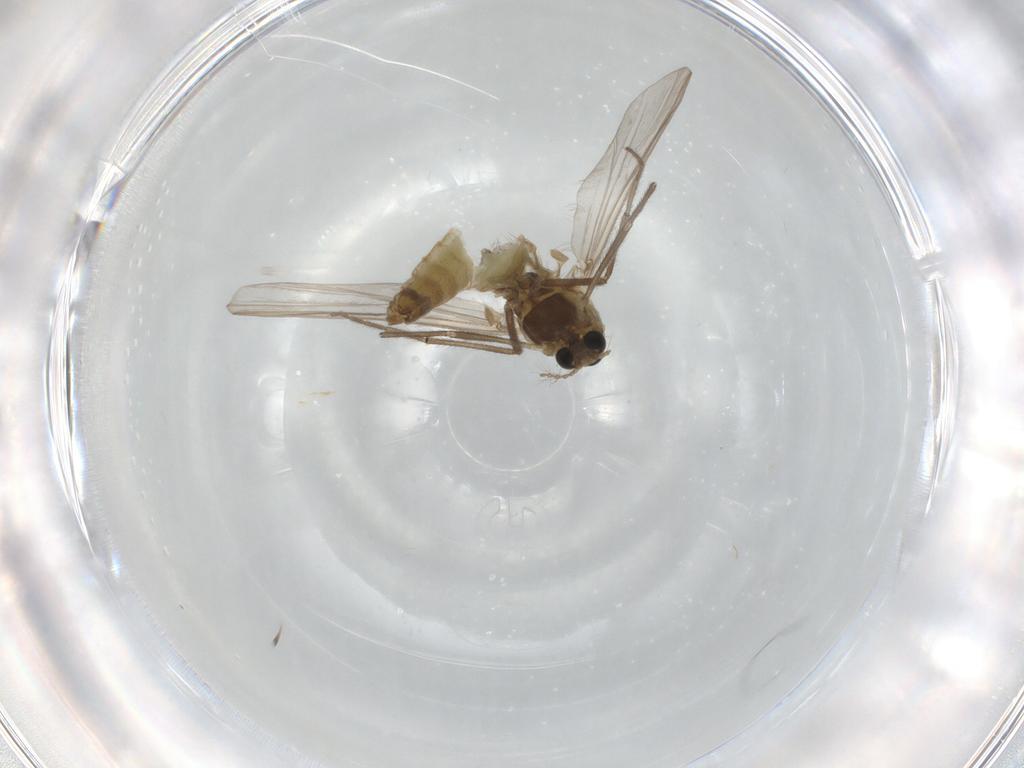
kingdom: Animalia
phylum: Arthropoda
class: Insecta
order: Diptera
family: Chironomidae
